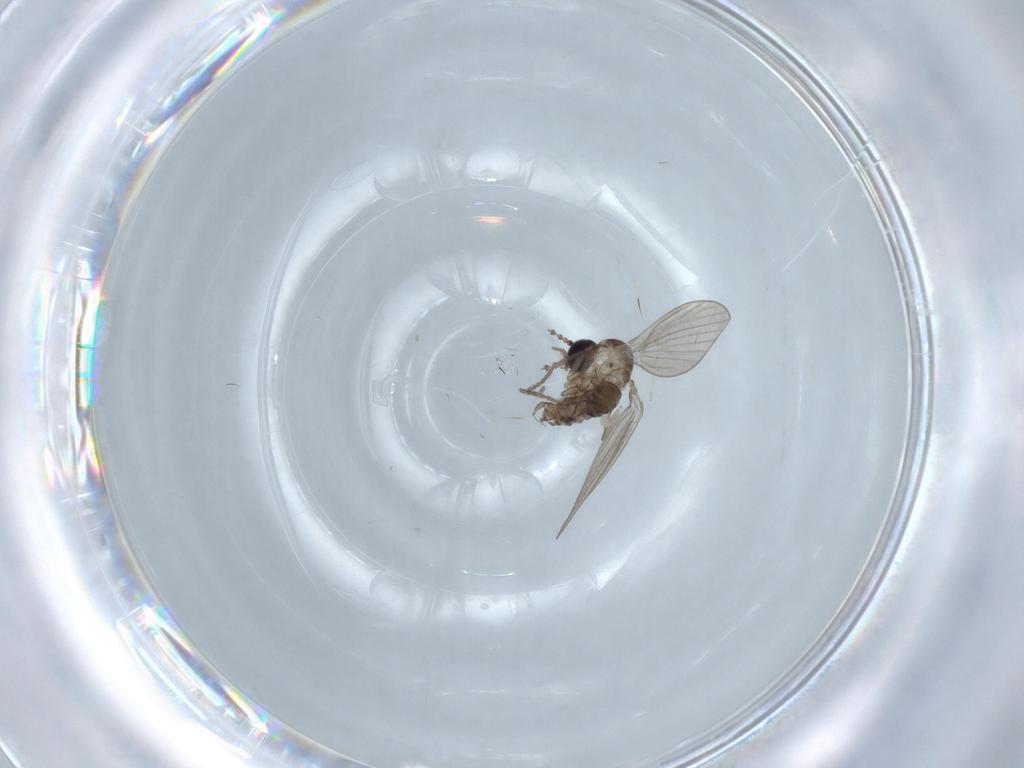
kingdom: Animalia
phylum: Arthropoda
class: Insecta
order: Diptera
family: Psychodidae
